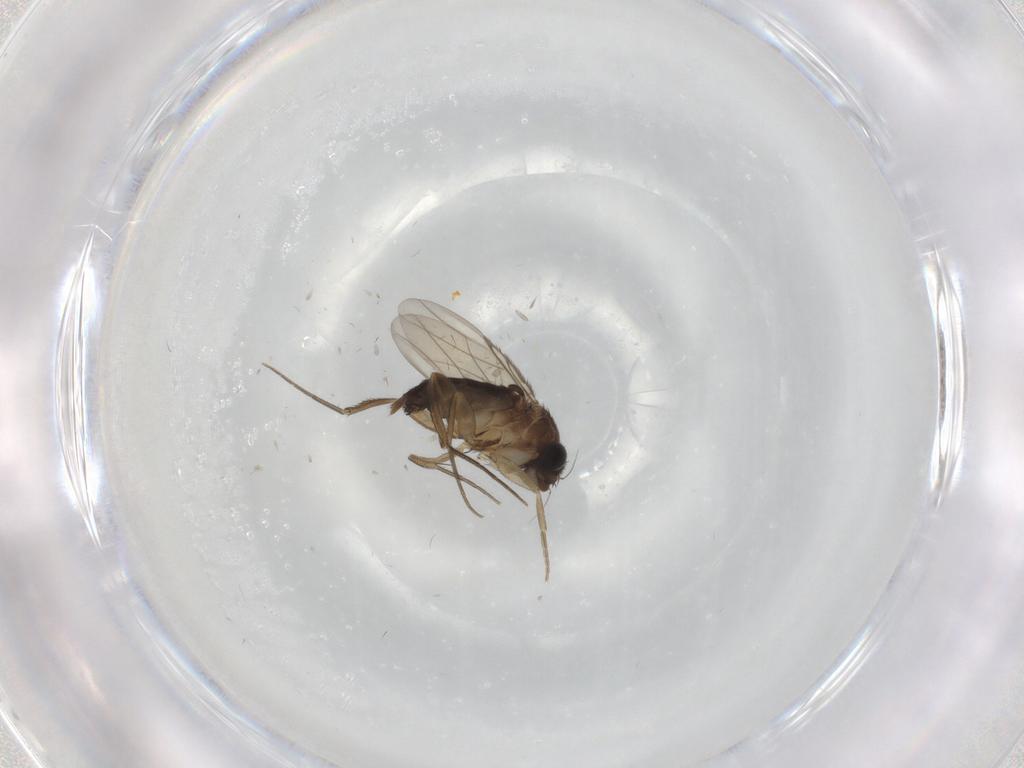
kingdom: Animalia
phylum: Arthropoda
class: Insecta
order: Diptera
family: Phoridae
